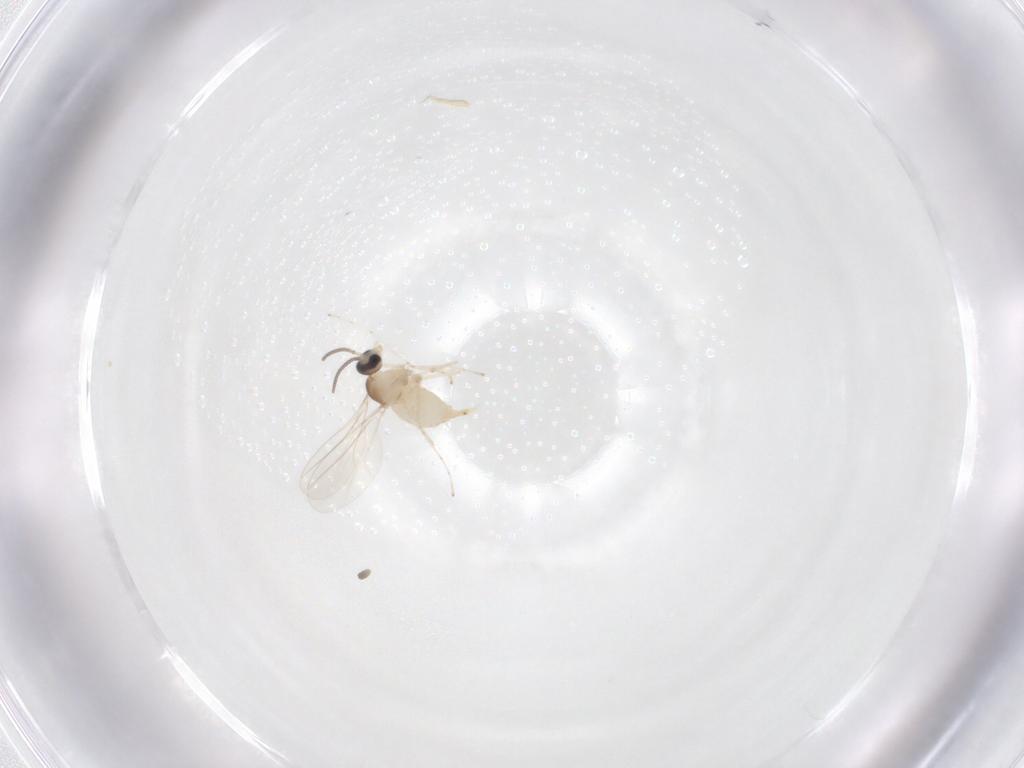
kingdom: Animalia
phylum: Arthropoda
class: Insecta
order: Diptera
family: Cecidomyiidae
